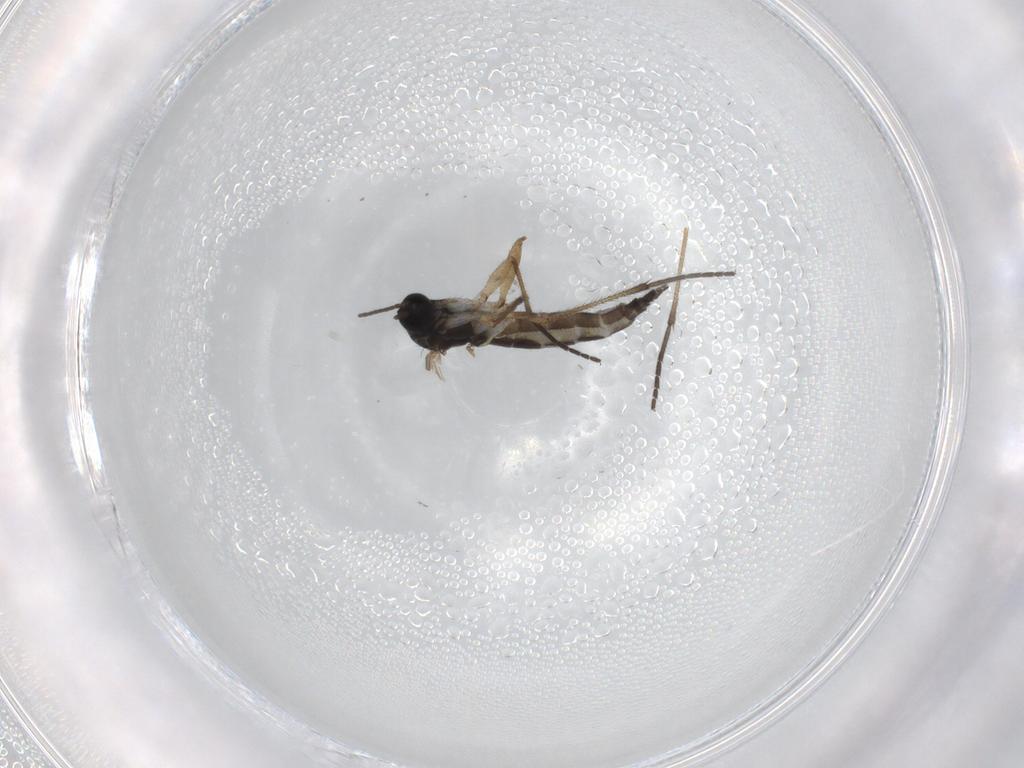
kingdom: Animalia
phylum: Arthropoda
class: Insecta
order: Diptera
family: Sciaridae
